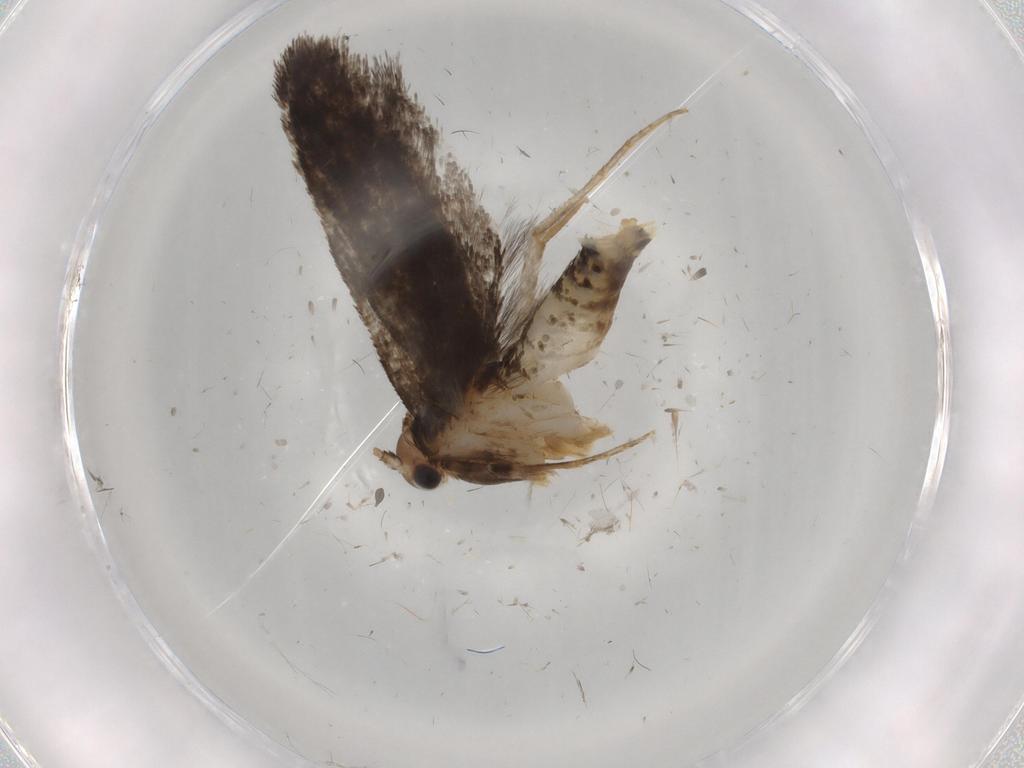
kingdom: Animalia
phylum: Arthropoda
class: Insecta
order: Lepidoptera
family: Tineidae
